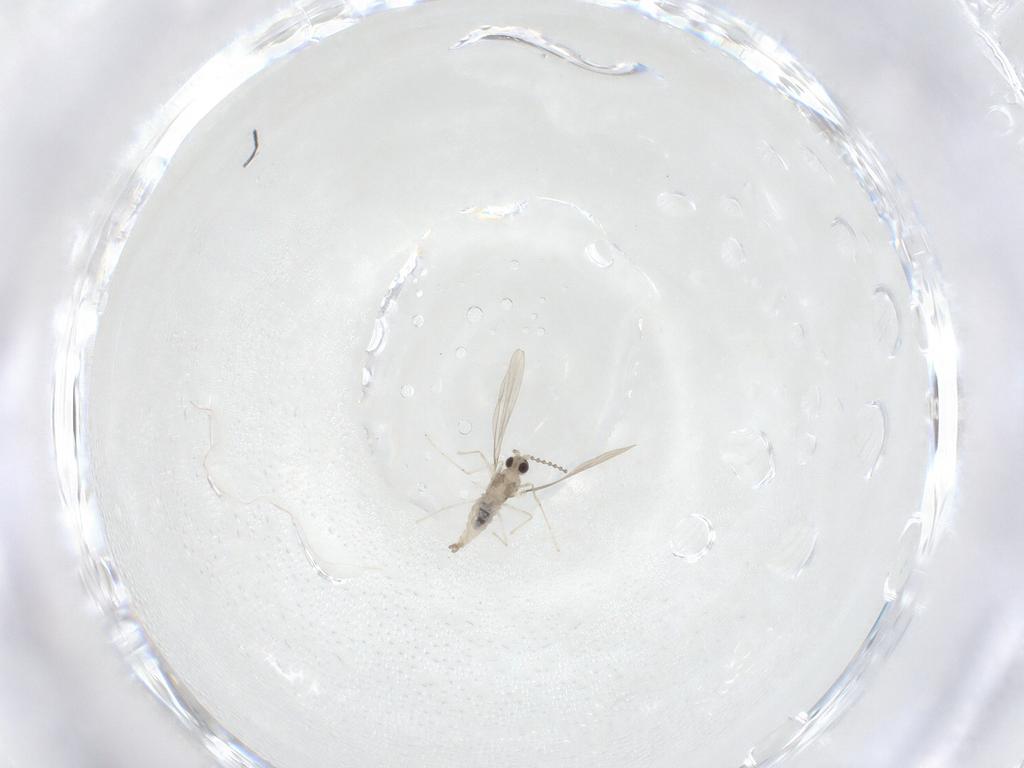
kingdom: Animalia
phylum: Arthropoda
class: Insecta
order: Diptera
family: Cecidomyiidae
